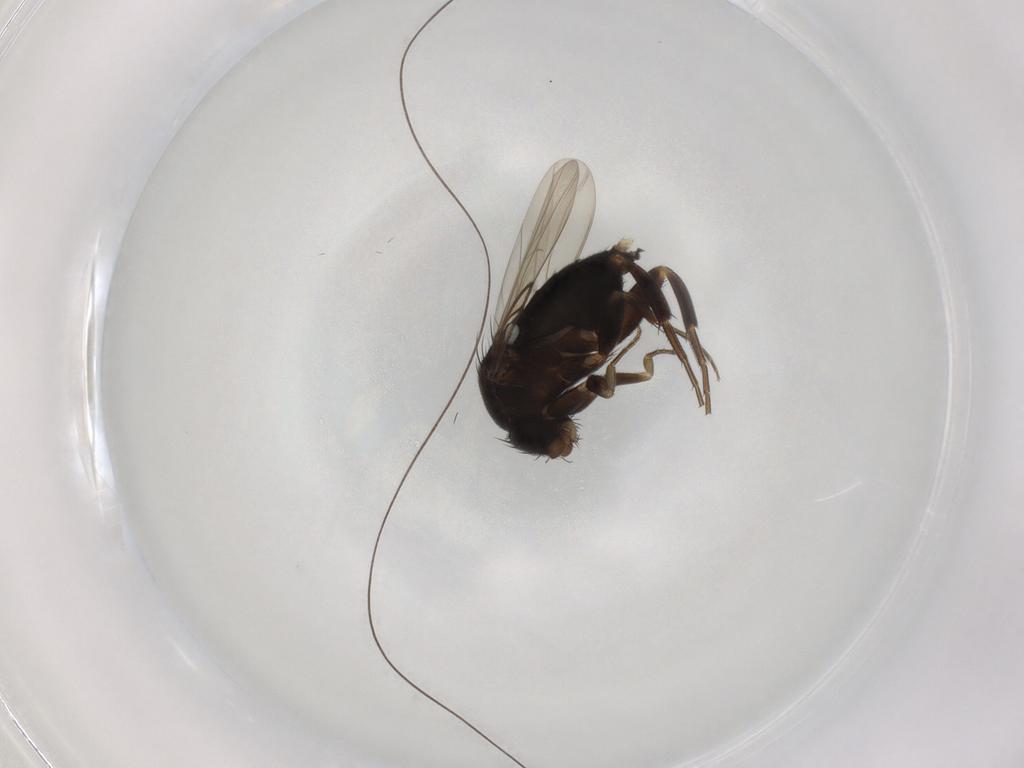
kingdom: Animalia
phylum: Arthropoda
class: Insecta
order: Diptera
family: Phoridae
